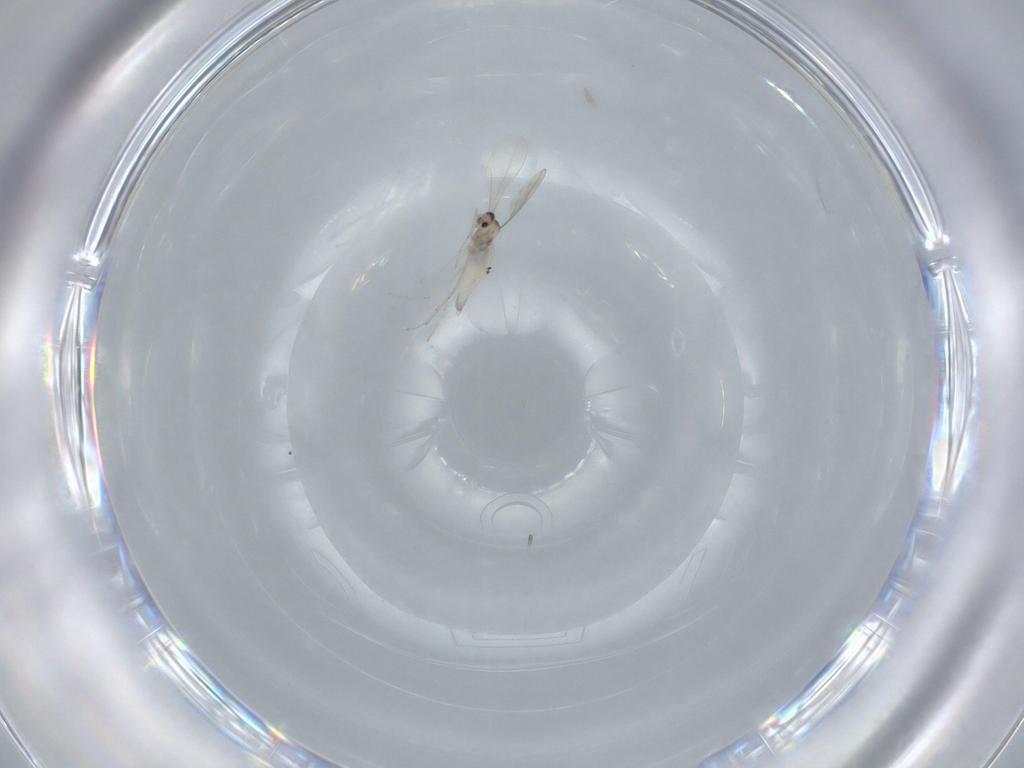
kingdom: Animalia
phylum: Arthropoda
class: Insecta
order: Diptera
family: Cecidomyiidae
